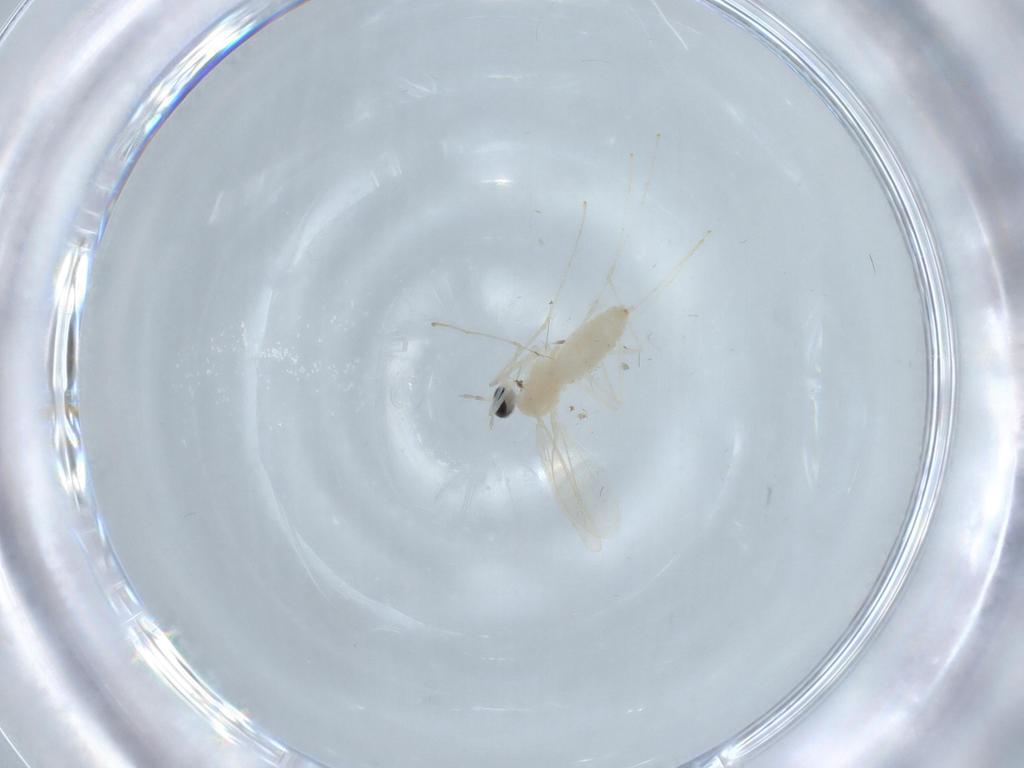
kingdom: Animalia
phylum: Arthropoda
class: Insecta
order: Diptera
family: Cecidomyiidae
